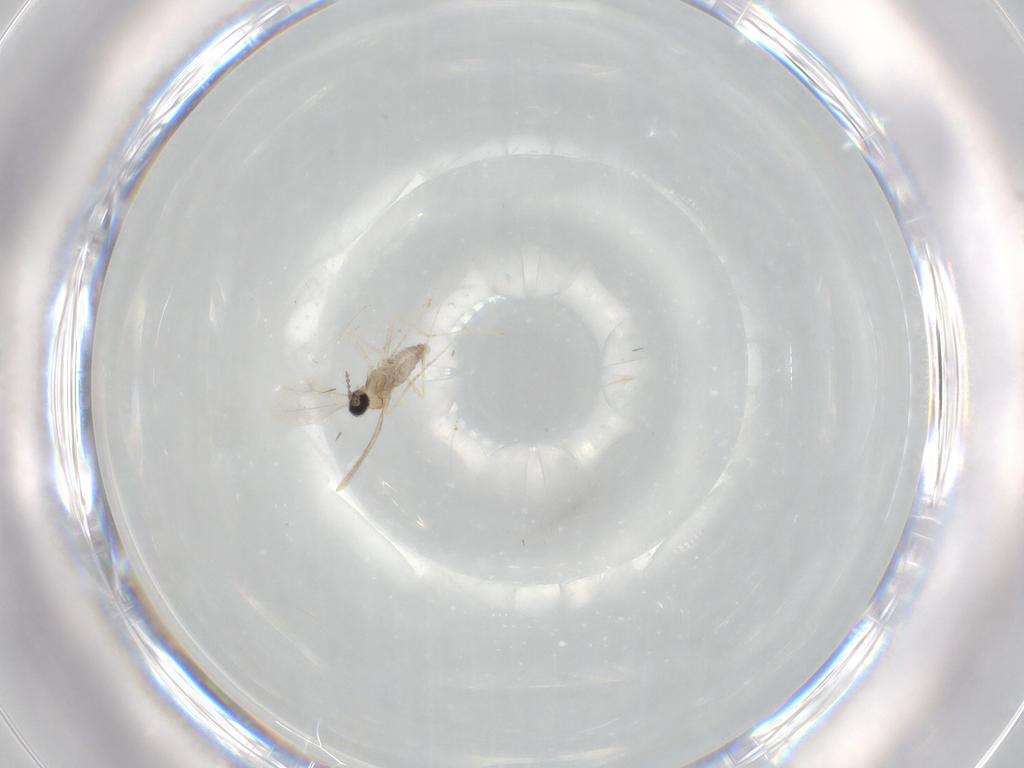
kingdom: Animalia
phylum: Arthropoda
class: Insecta
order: Diptera
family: Cecidomyiidae
